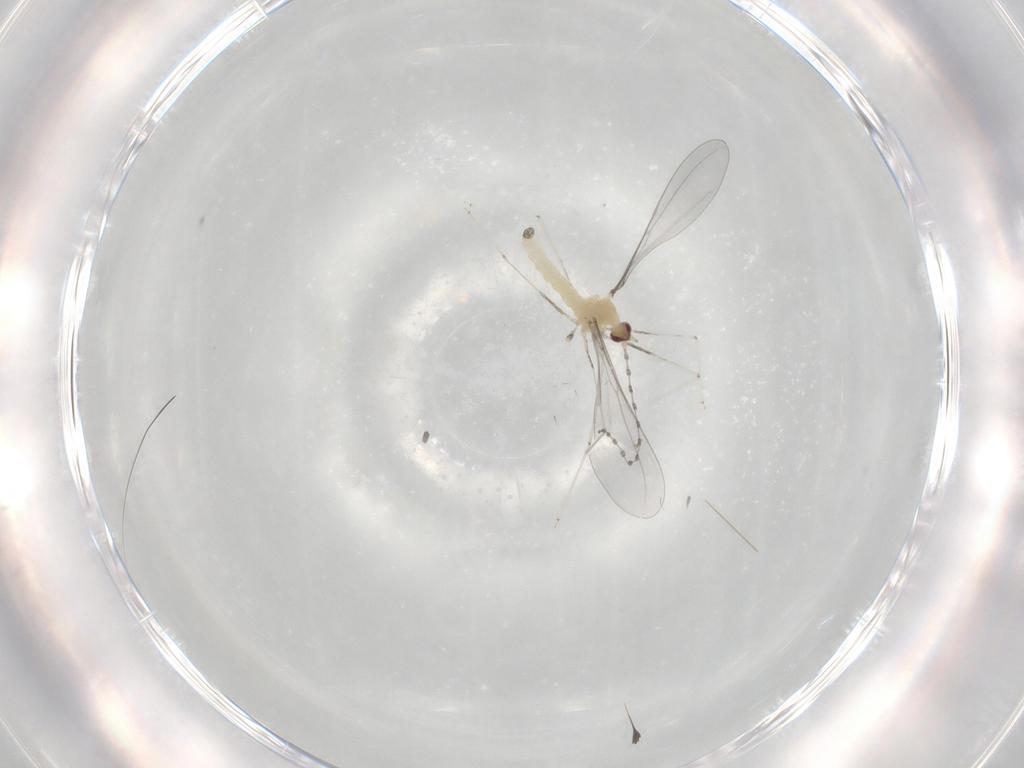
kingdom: Animalia
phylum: Arthropoda
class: Insecta
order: Diptera
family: Cecidomyiidae
